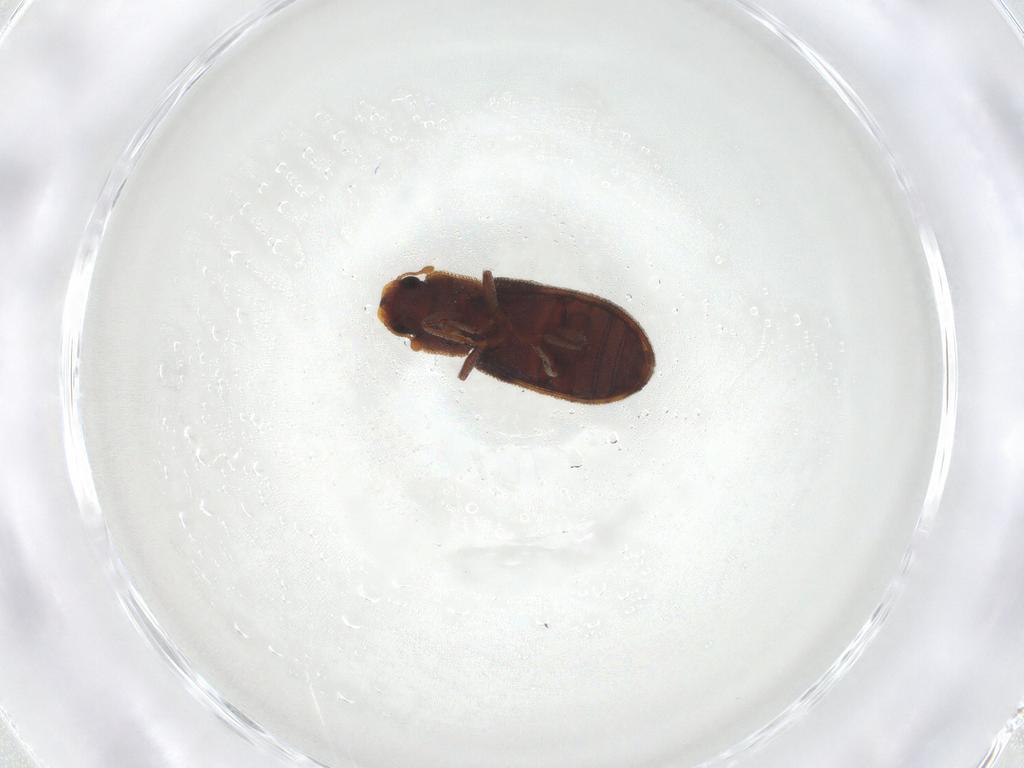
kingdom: Animalia
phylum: Arthropoda
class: Insecta
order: Coleoptera
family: Zopheridae
